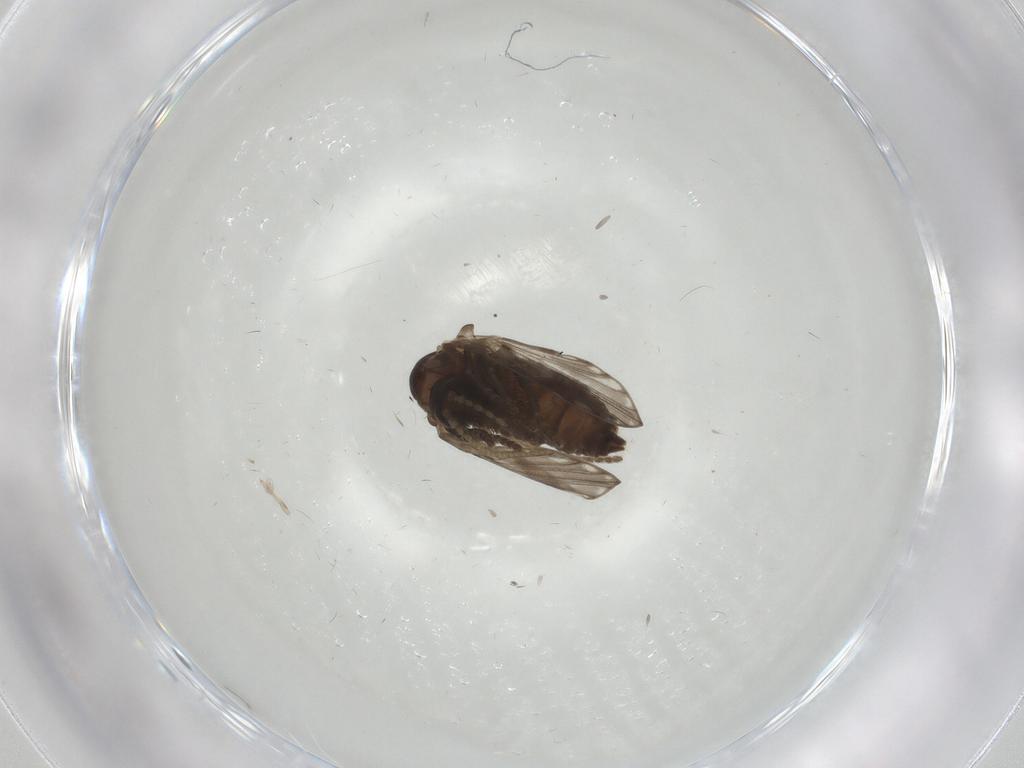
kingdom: Animalia
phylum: Arthropoda
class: Insecta
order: Diptera
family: Psychodidae
